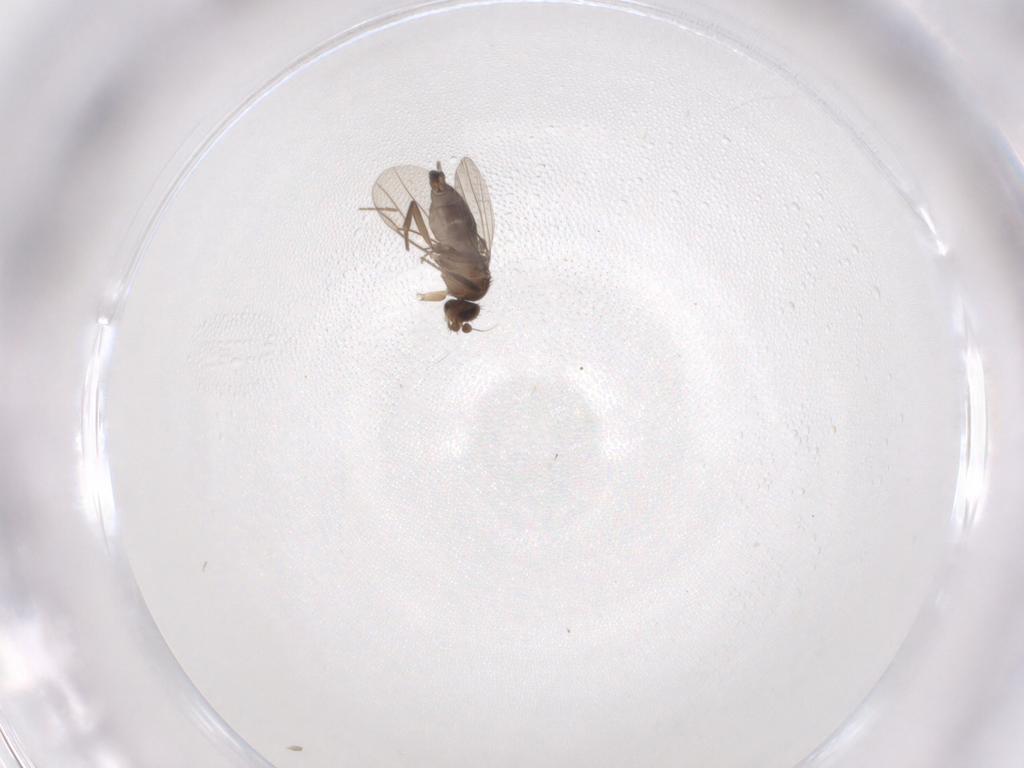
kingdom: Animalia
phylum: Arthropoda
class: Insecta
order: Diptera
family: Phoridae
